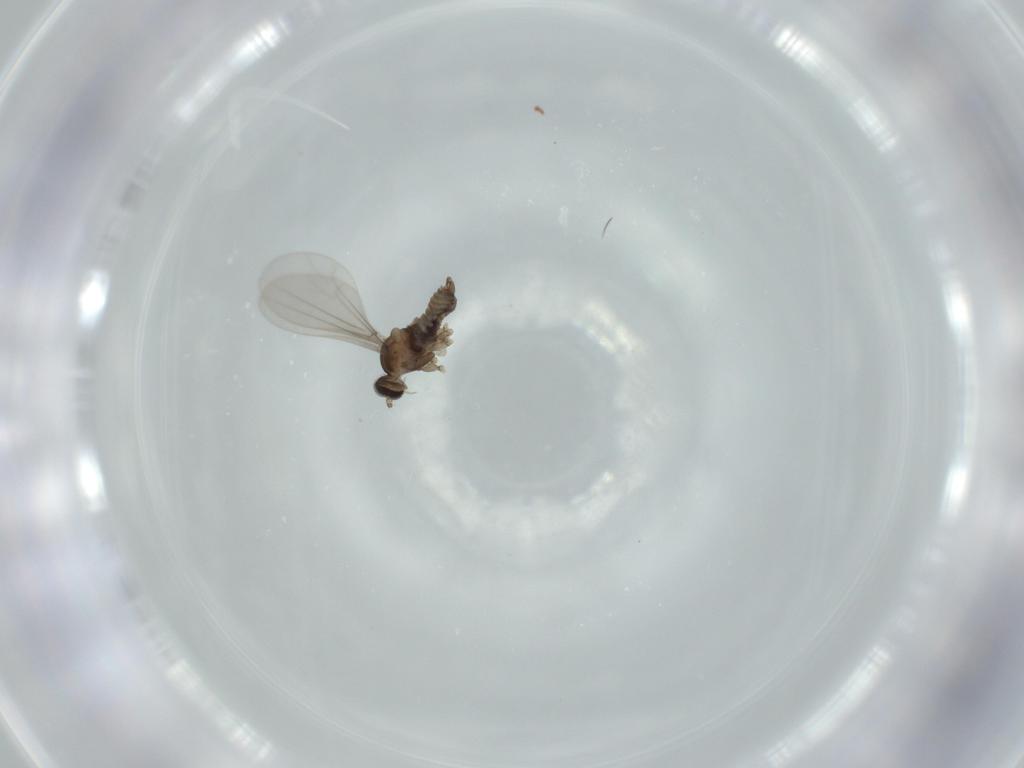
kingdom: Animalia
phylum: Arthropoda
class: Insecta
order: Diptera
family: Cecidomyiidae
